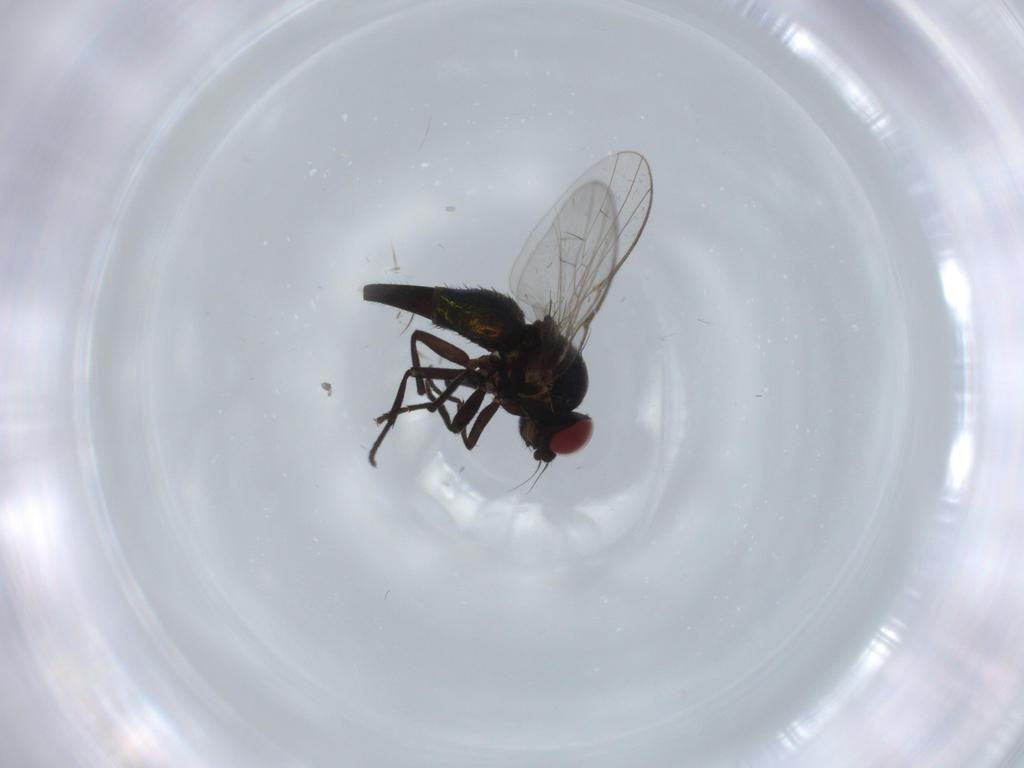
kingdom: Animalia
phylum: Arthropoda
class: Insecta
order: Diptera
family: Agromyzidae
